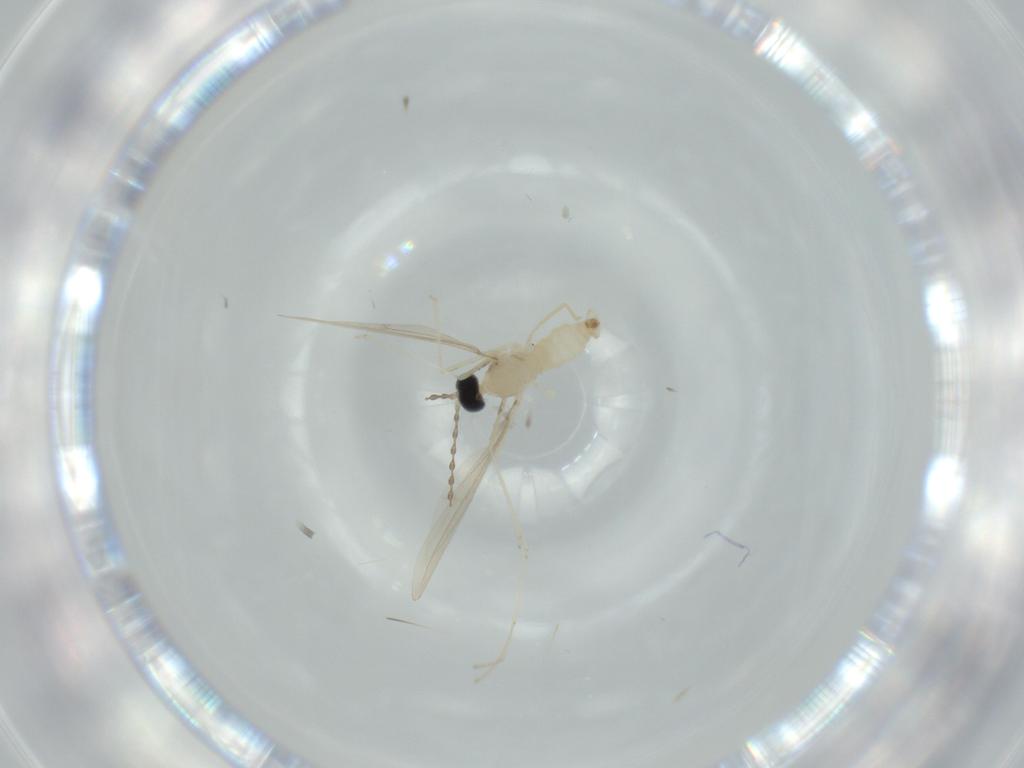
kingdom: Animalia
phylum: Arthropoda
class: Insecta
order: Diptera
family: Cecidomyiidae
